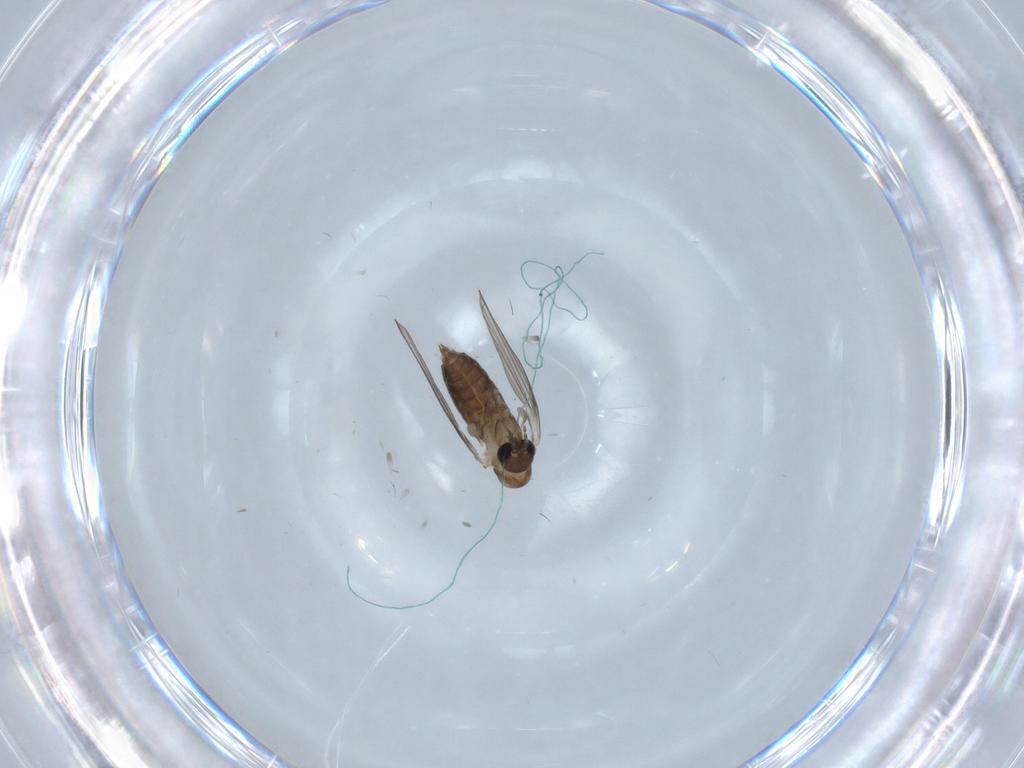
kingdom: Animalia
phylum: Arthropoda
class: Insecta
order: Diptera
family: Psychodidae
